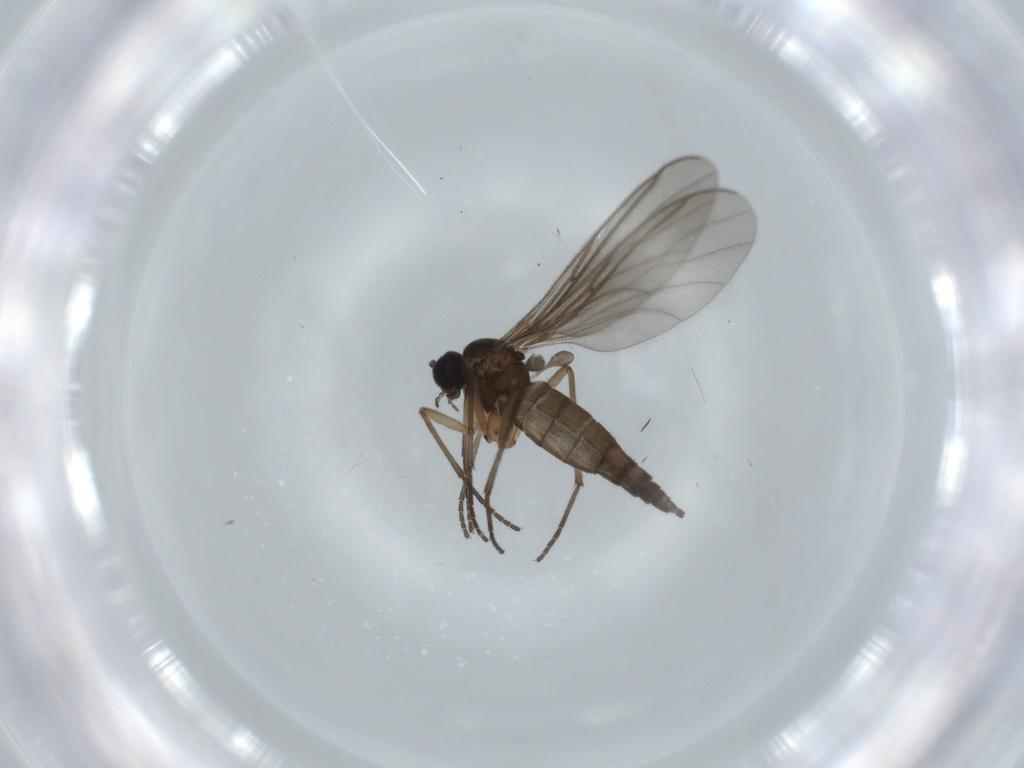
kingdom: Animalia
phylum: Arthropoda
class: Insecta
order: Diptera
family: Sciaridae
